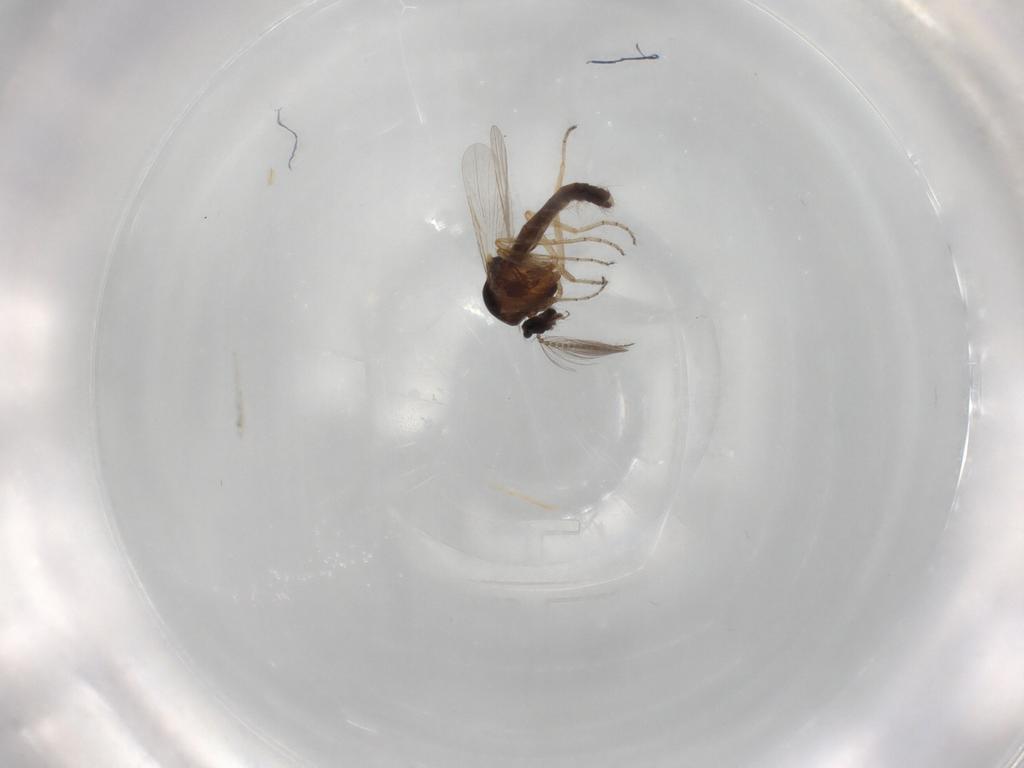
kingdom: Animalia
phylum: Arthropoda
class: Insecta
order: Diptera
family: Ceratopogonidae
